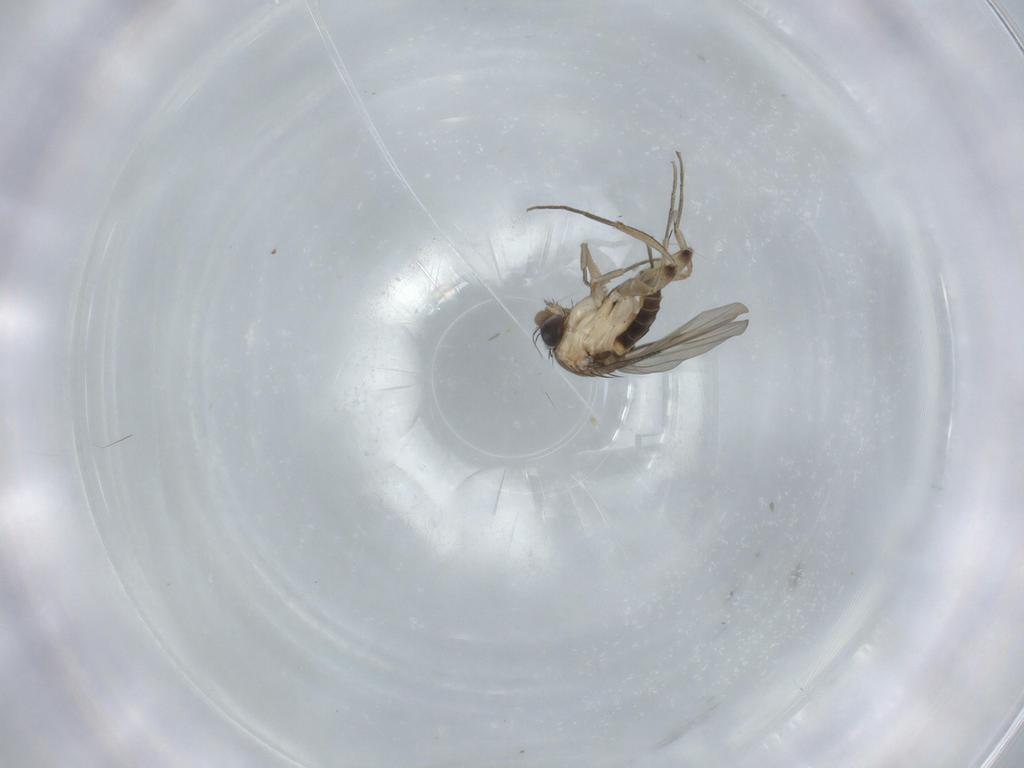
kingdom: Animalia
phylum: Arthropoda
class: Insecta
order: Diptera
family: Phoridae
